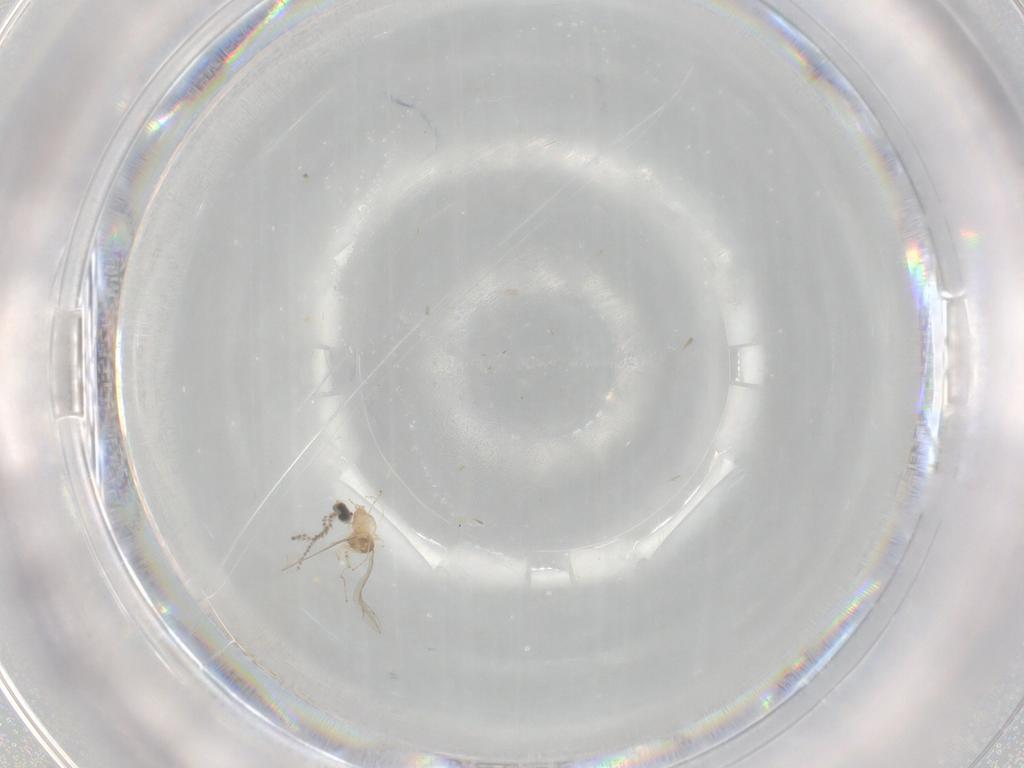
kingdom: Animalia
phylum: Arthropoda
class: Insecta
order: Diptera
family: Cecidomyiidae
